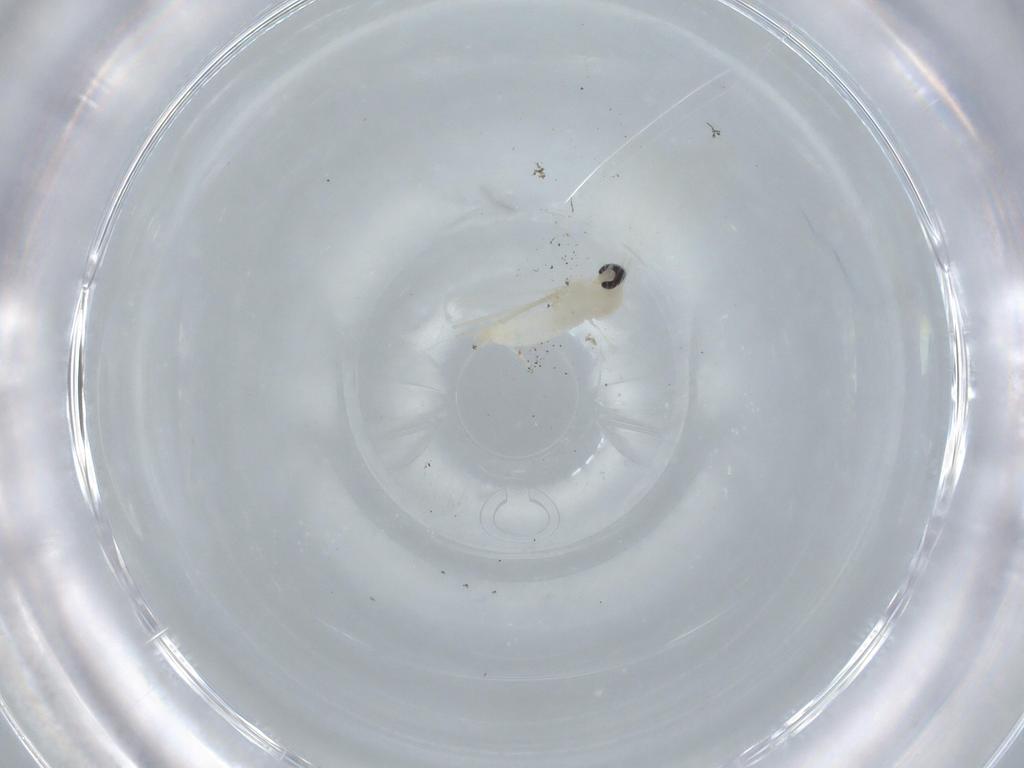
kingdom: Animalia
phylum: Arthropoda
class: Insecta
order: Diptera
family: Cecidomyiidae
